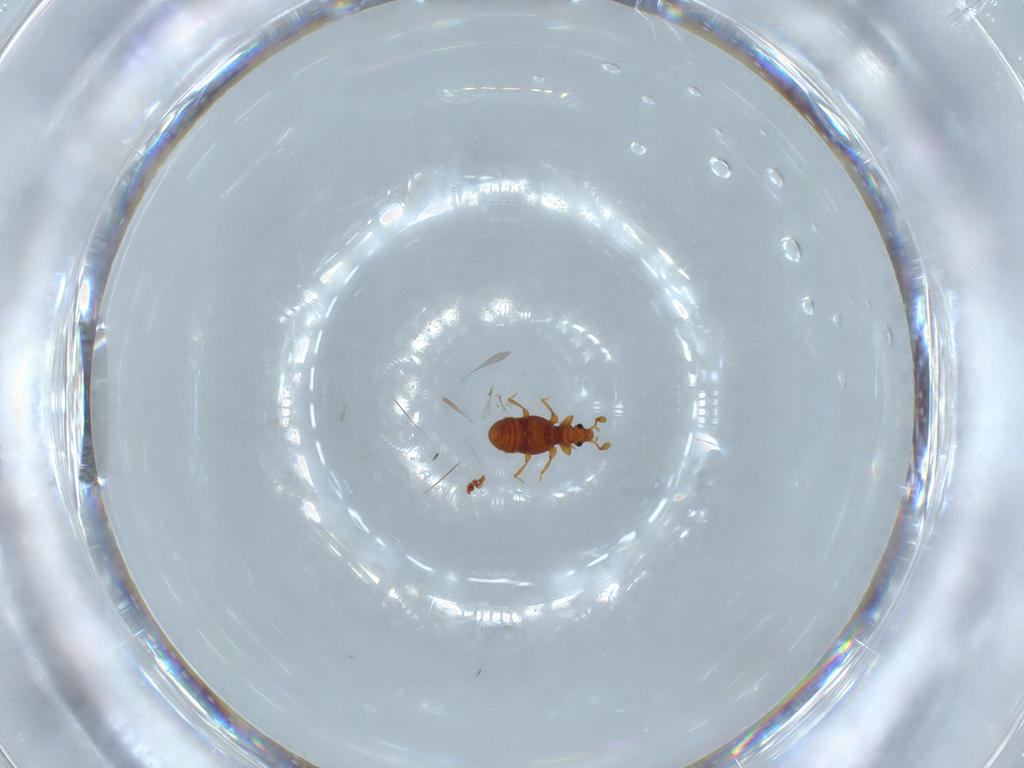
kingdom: Animalia
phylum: Arthropoda
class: Insecta
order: Coleoptera
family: Staphylinidae
